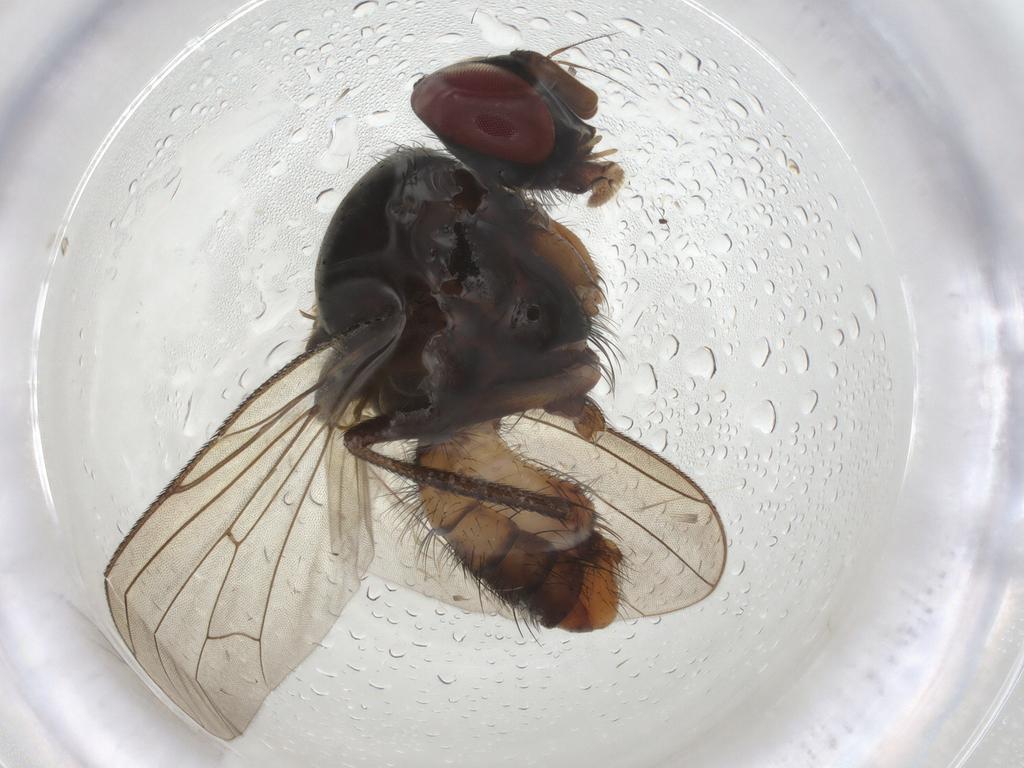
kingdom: Animalia
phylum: Arthropoda
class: Insecta
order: Diptera
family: Anthomyiidae
